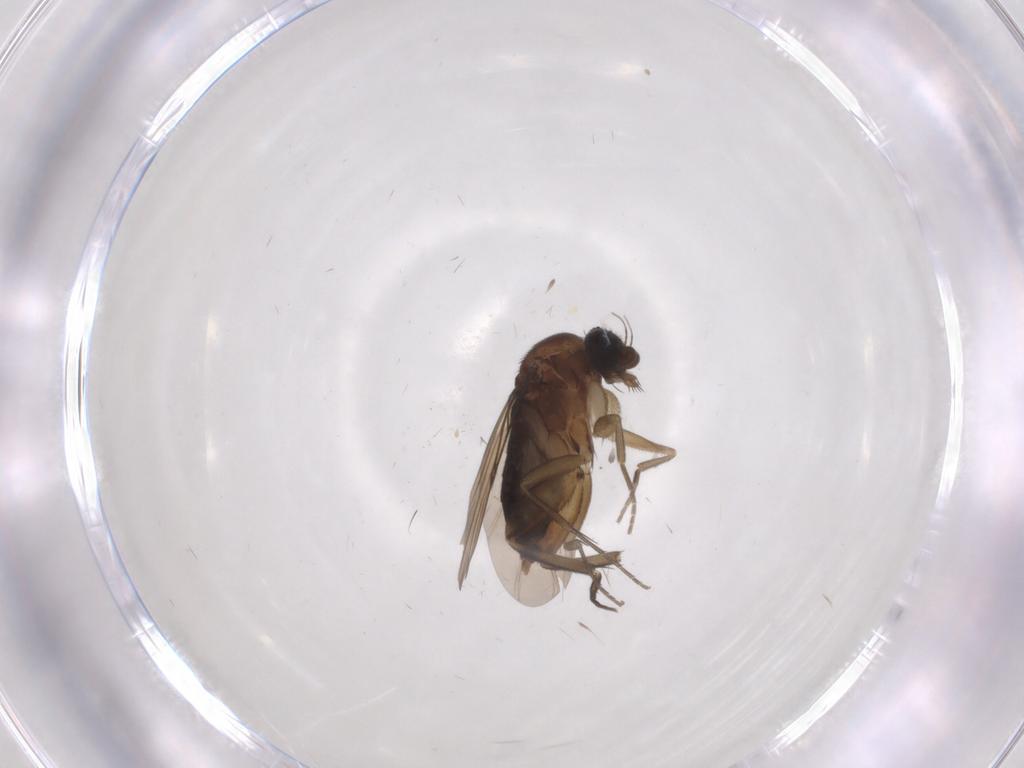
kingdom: Animalia
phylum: Arthropoda
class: Insecta
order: Diptera
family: Phoridae
